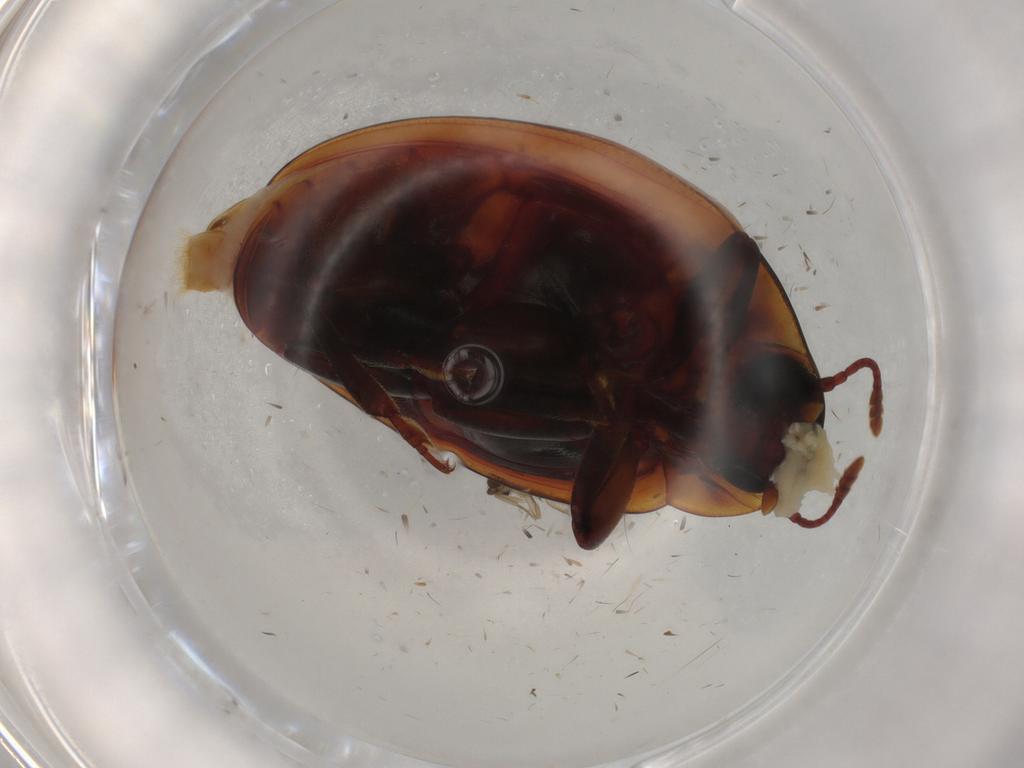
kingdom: Animalia
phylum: Arthropoda
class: Insecta
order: Coleoptera
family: Zopheridae
